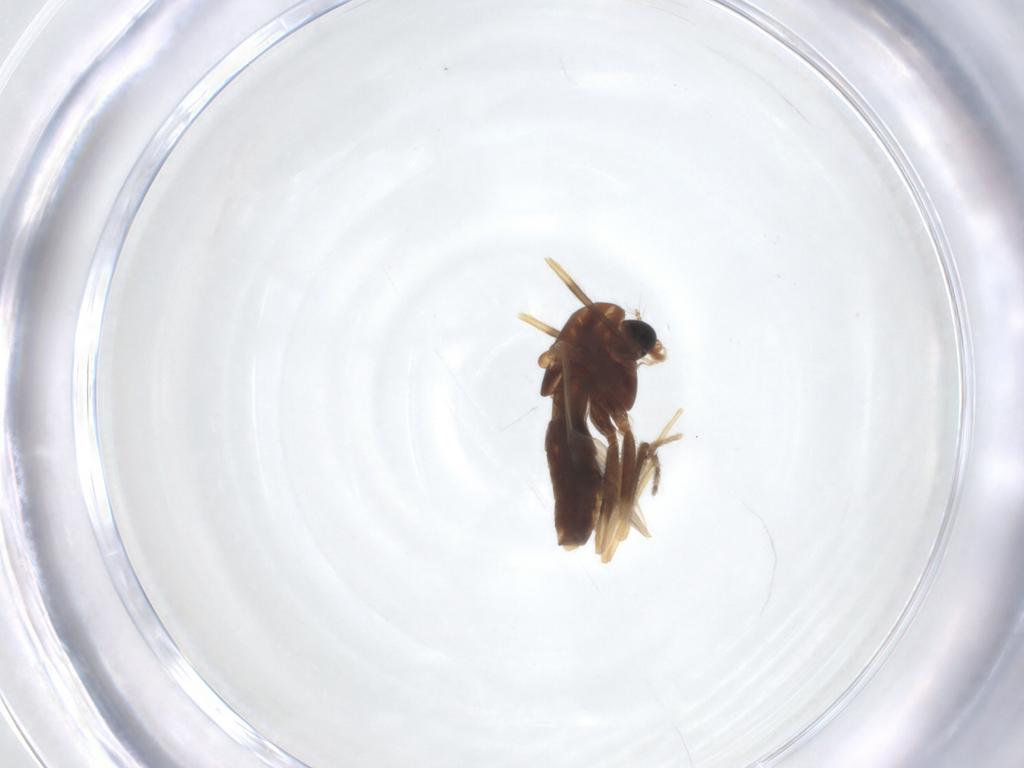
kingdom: Animalia
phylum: Arthropoda
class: Insecta
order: Diptera
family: Chironomidae
